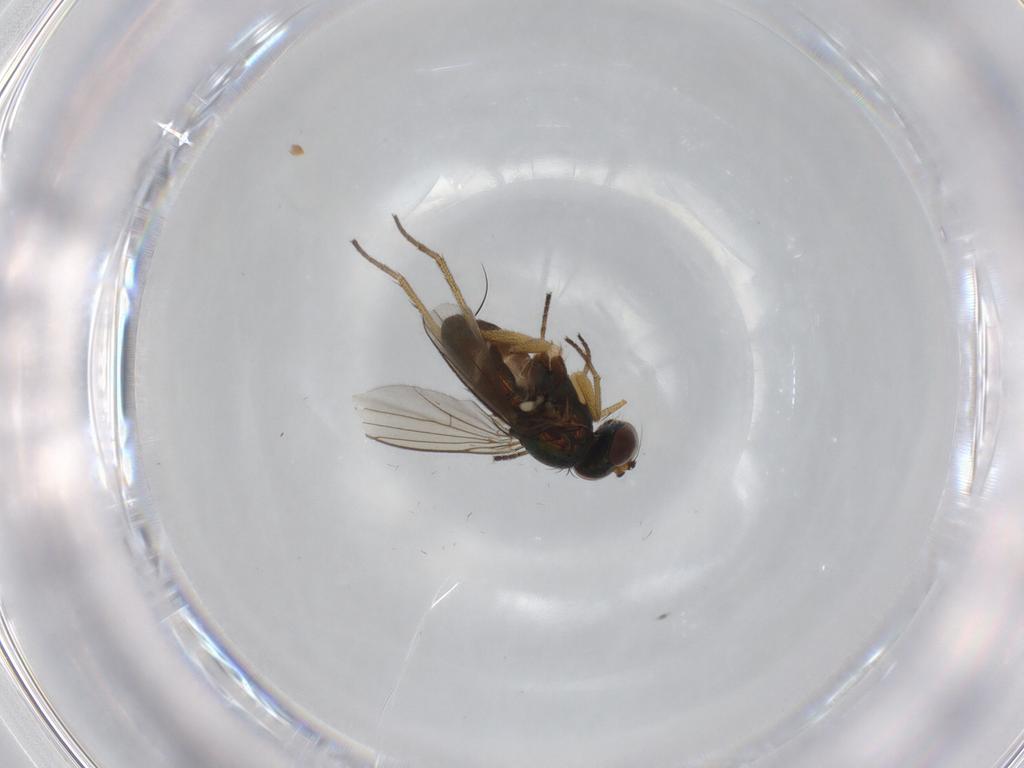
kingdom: Animalia
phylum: Arthropoda
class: Insecta
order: Diptera
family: Dolichopodidae
